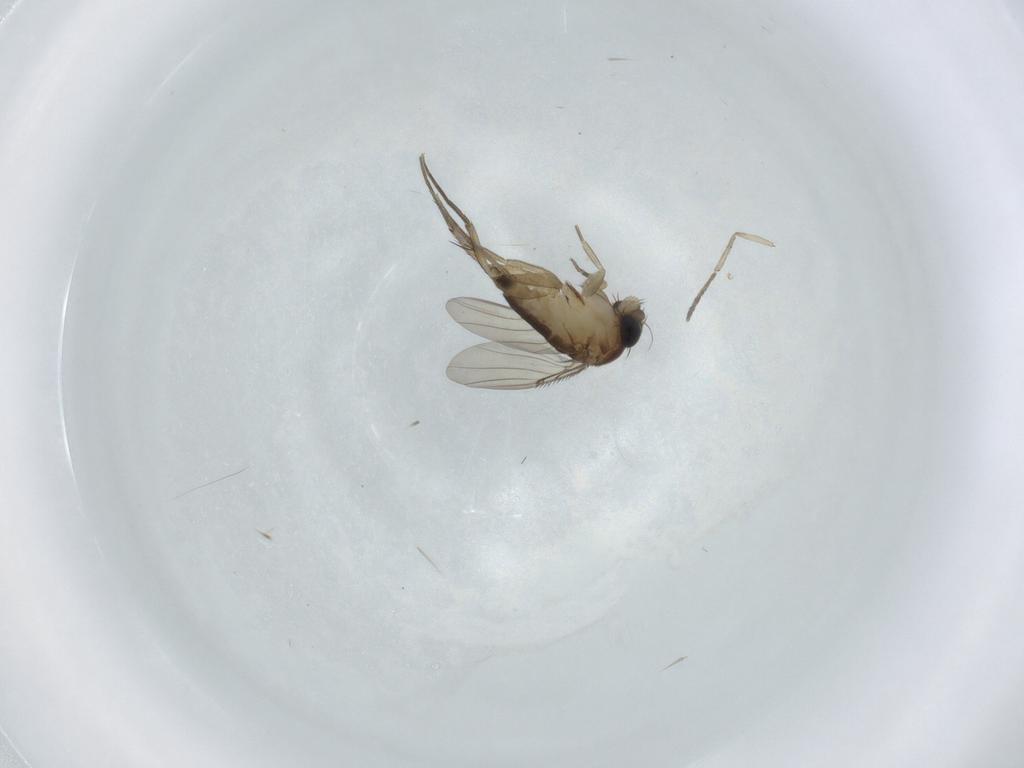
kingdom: Animalia
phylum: Arthropoda
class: Insecta
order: Diptera
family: Phoridae
